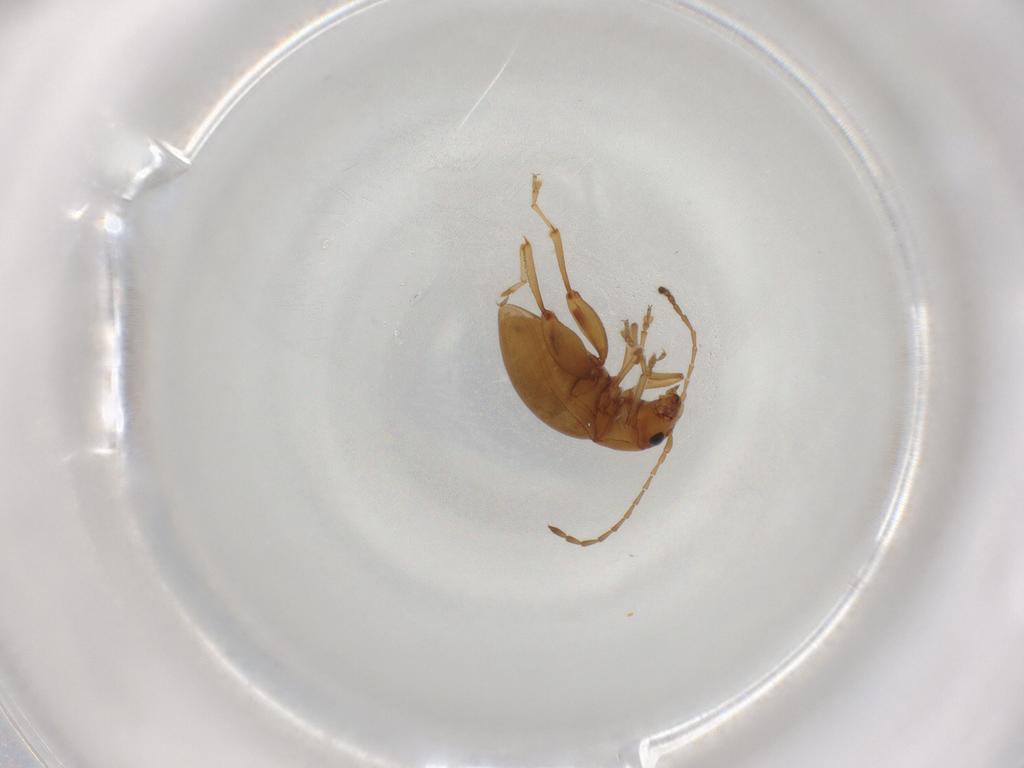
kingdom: Animalia
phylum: Arthropoda
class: Insecta
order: Coleoptera
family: Chrysomelidae
